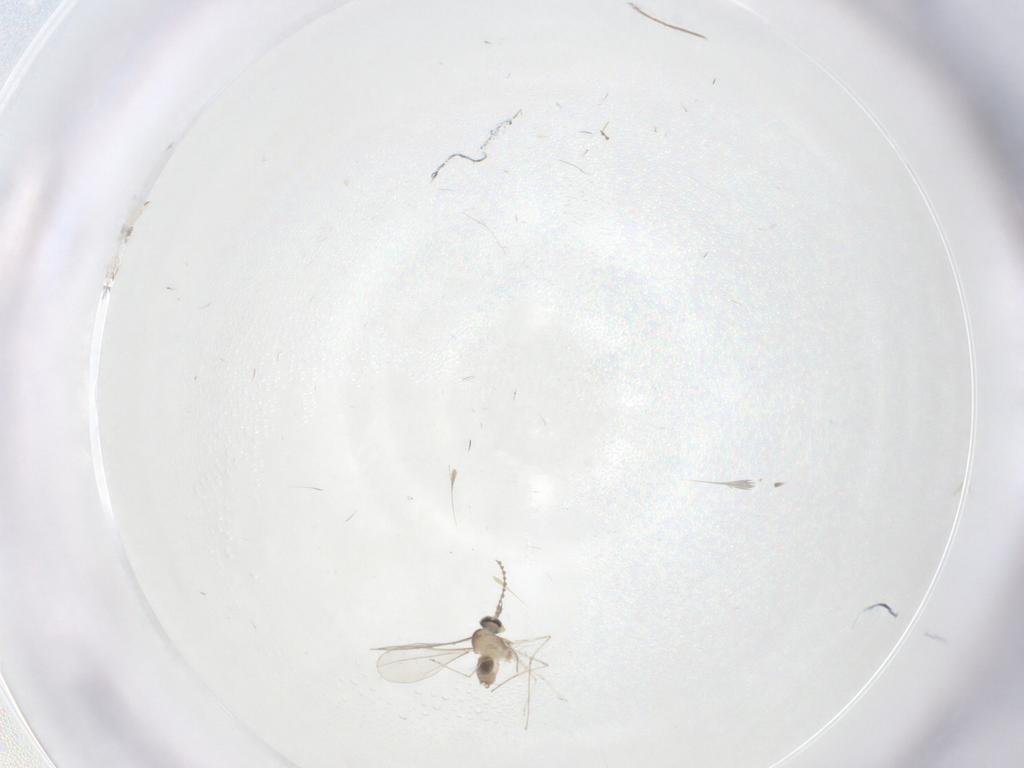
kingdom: Animalia
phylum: Arthropoda
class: Insecta
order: Diptera
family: Cecidomyiidae
